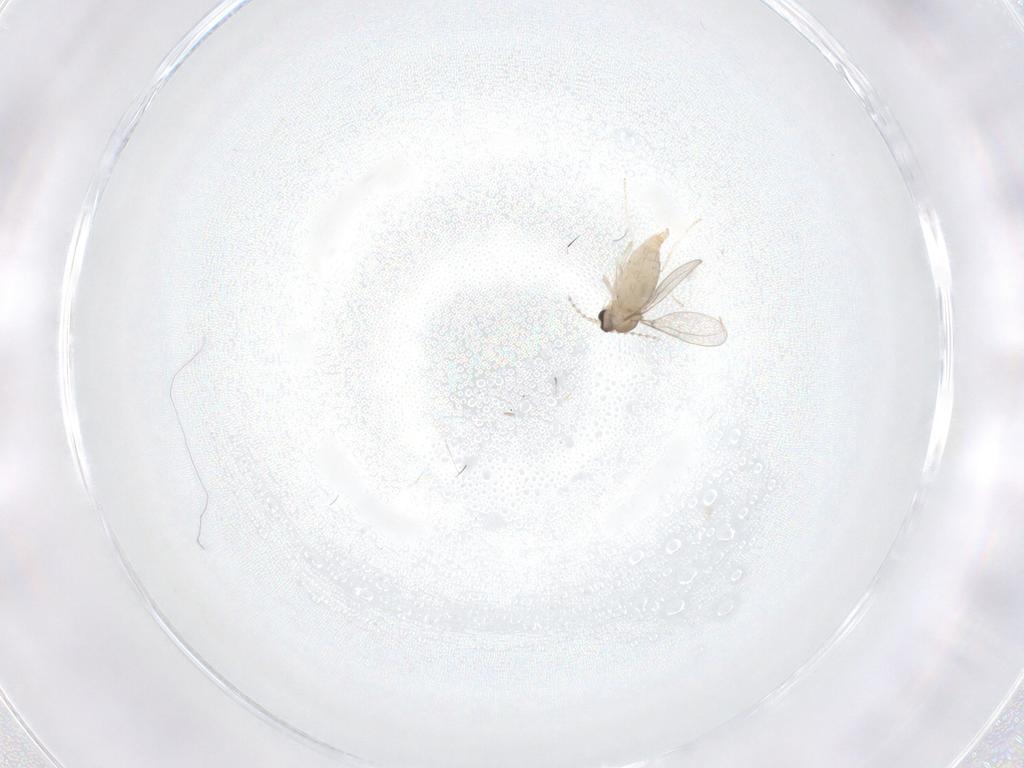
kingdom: Animalia
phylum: Arthropoda
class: Insecta
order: Diptera
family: Cecidomyiidae
